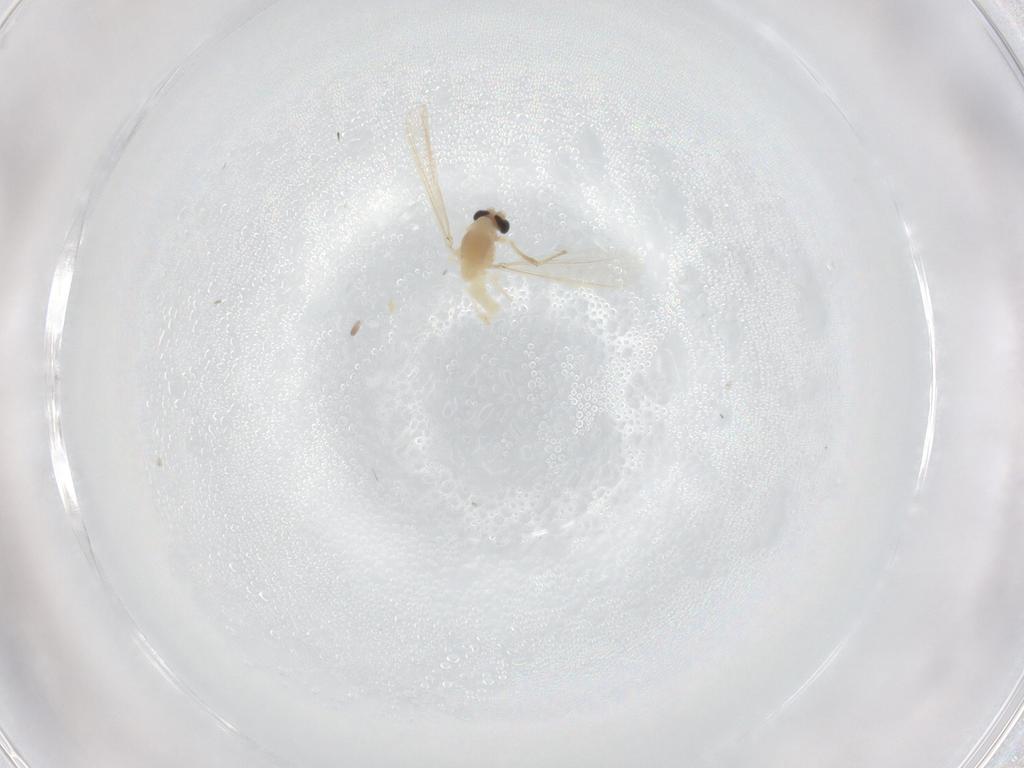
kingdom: Animalia
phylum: Arthropoda
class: Insecta
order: Diptera
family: Chironomidae
